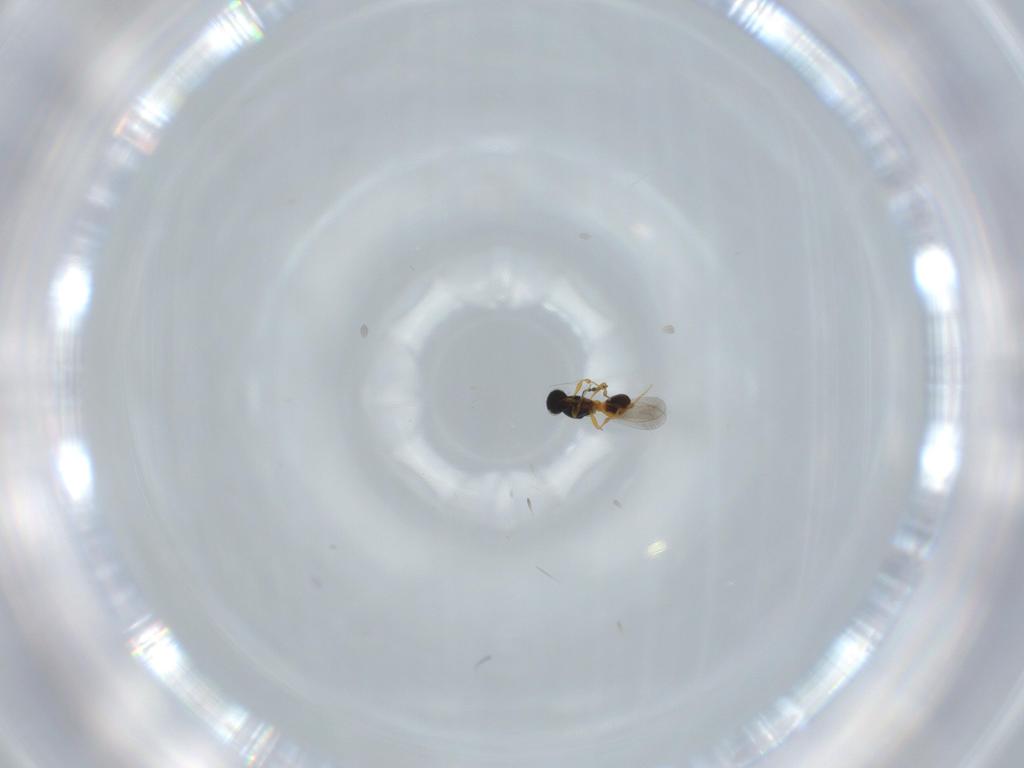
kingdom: Animalia
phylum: Arthropoda
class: Insecta
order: Hymenoptera
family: Platygastridae
